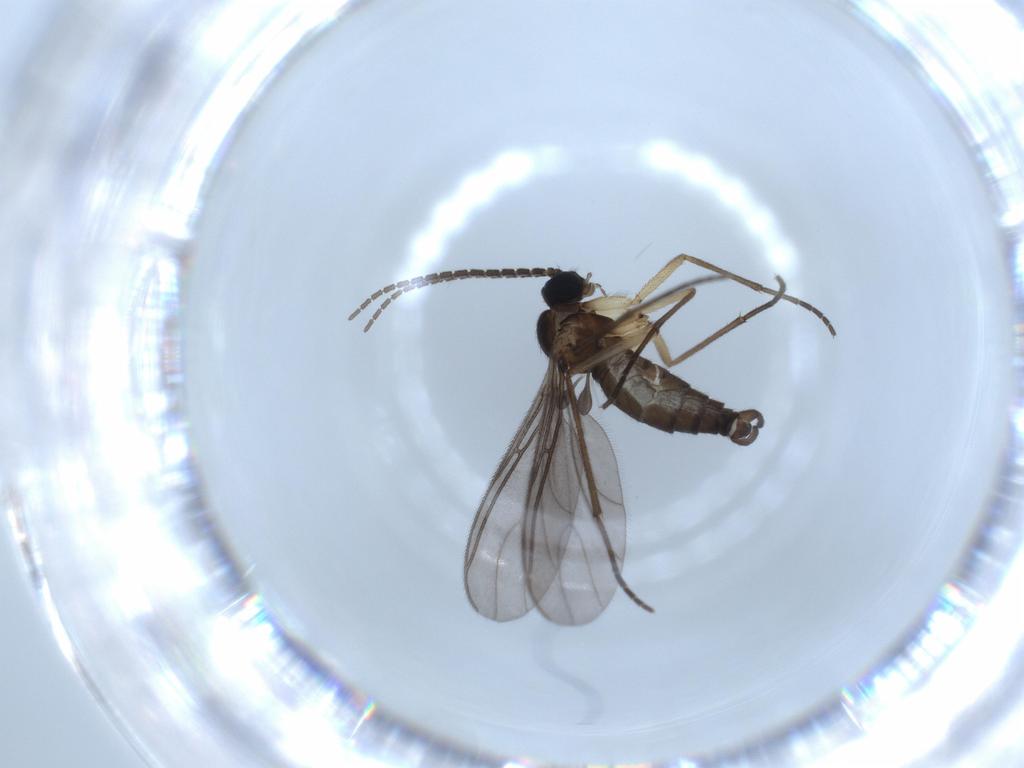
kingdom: Animalia
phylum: Arthropoda
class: Insecta
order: Diptera
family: Sciaridae
